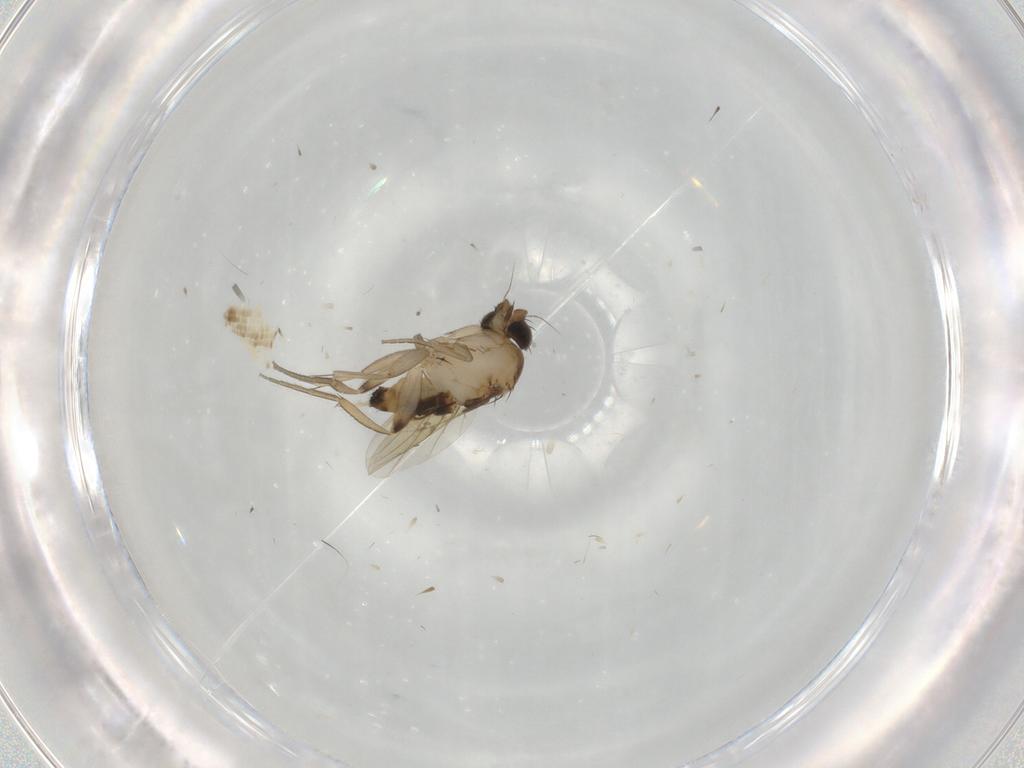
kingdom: Animalia
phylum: Arthropoda
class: Insecta
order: Diptera
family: Phoridae
